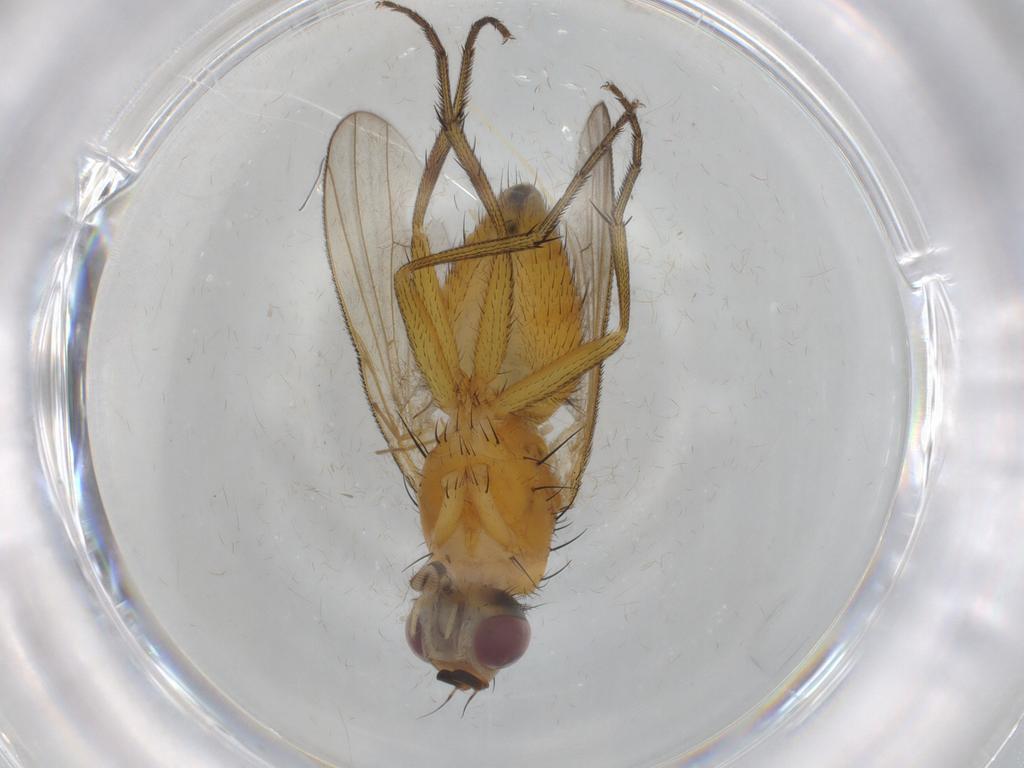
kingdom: Animalia
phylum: Arthropoda
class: Insecta
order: Diptera
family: Muscidae
